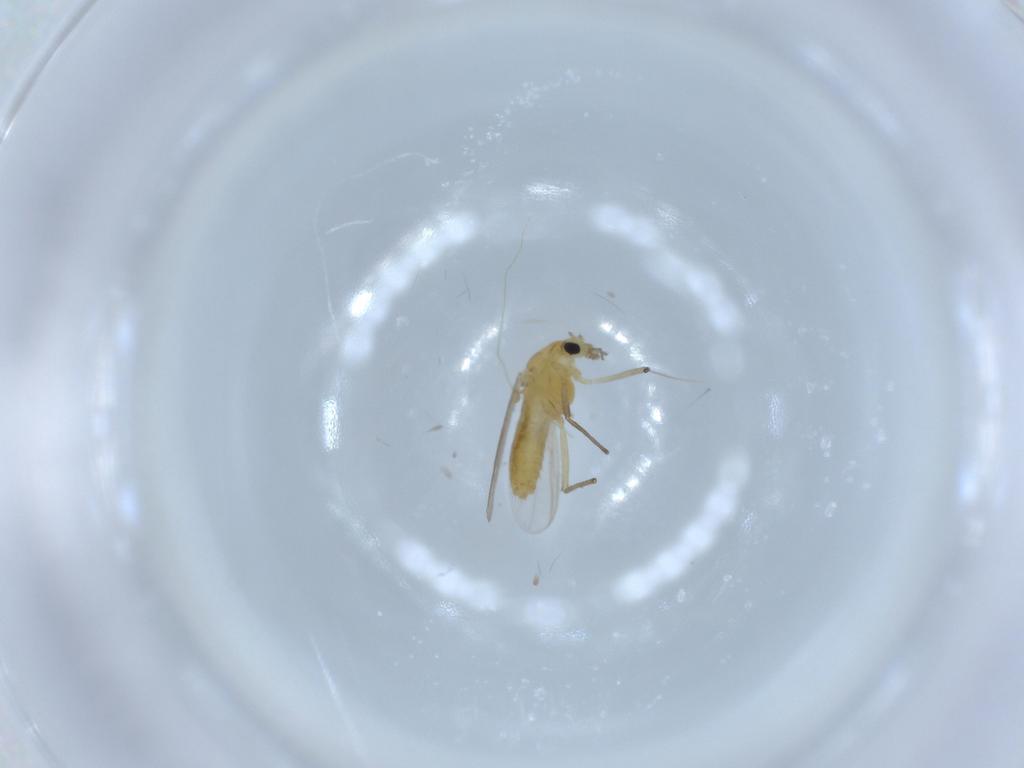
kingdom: Animalia
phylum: Arthropoda
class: Insecta
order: Diptera
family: Chironomidae
